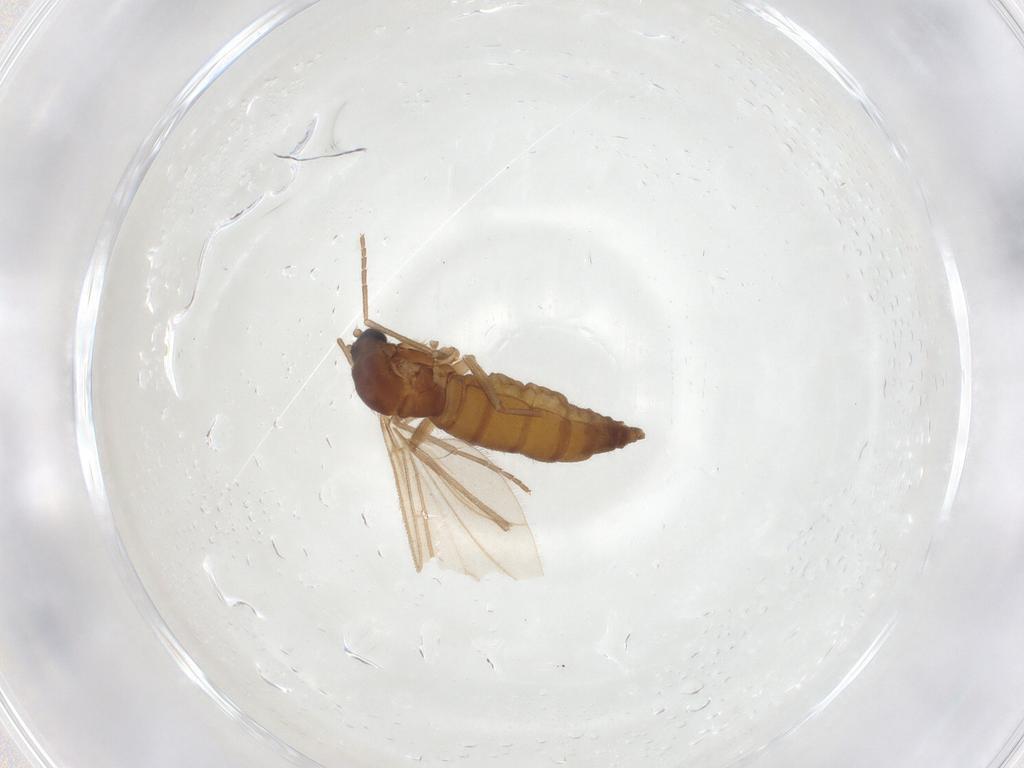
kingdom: Animalia
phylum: Arthropoda
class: Insecta
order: Diptera
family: Sciaridae
